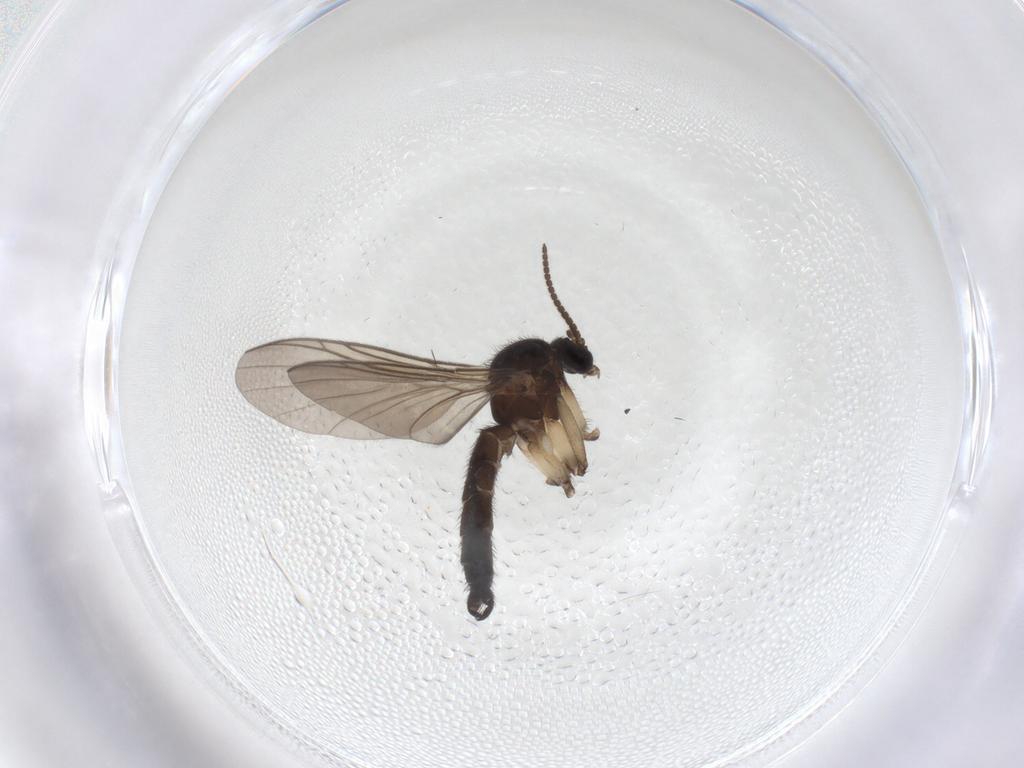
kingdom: Animalia
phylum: Arthropoda
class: Insecta
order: Diptera
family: Keroplatidae
